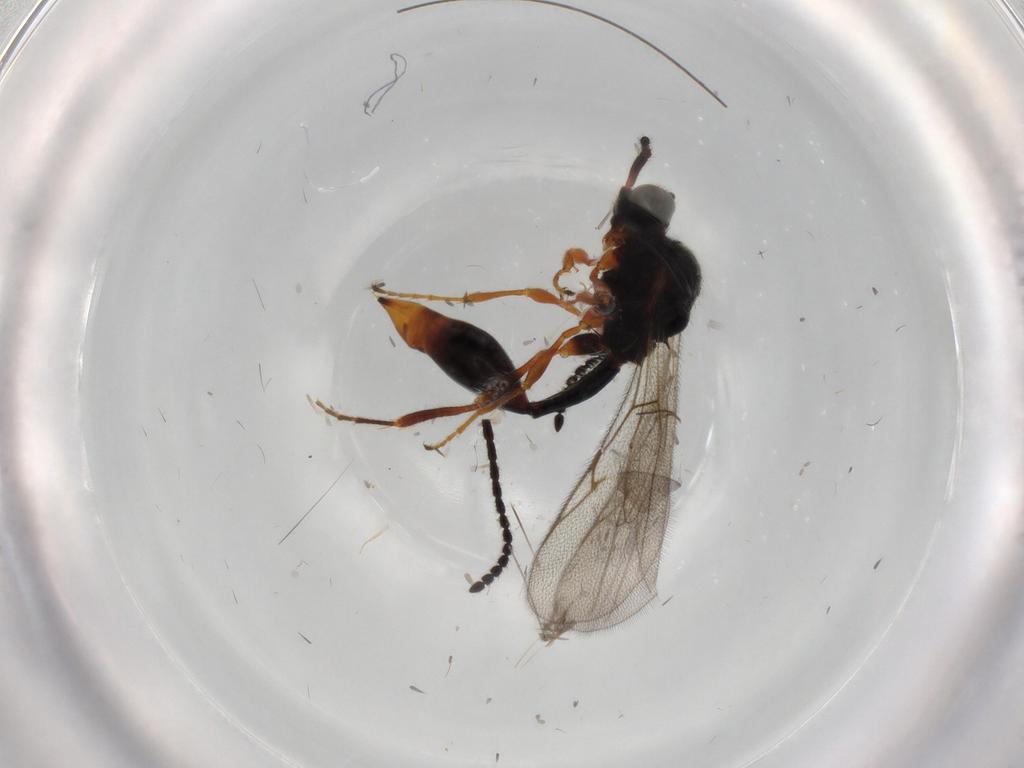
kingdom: Animalia
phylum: Arthropoda
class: Insecta
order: Hymenoptera
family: Diapriidae
